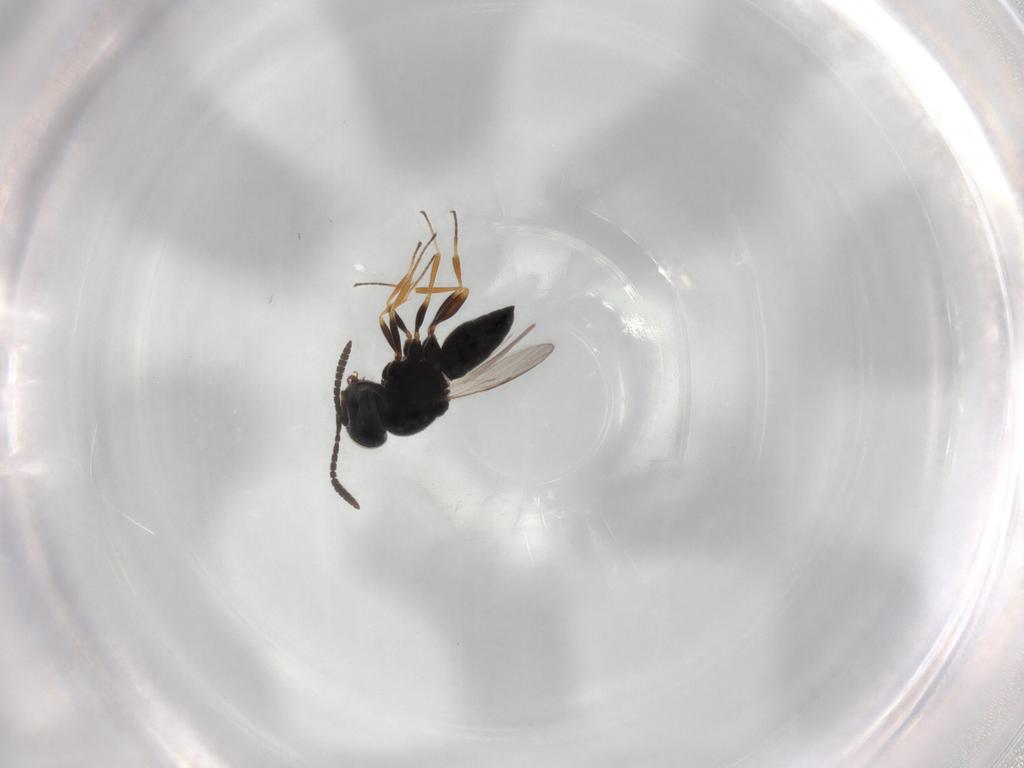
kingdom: Animalia
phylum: Arthropoda
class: Insecta
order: Hymenoptera
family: Scelionidae
